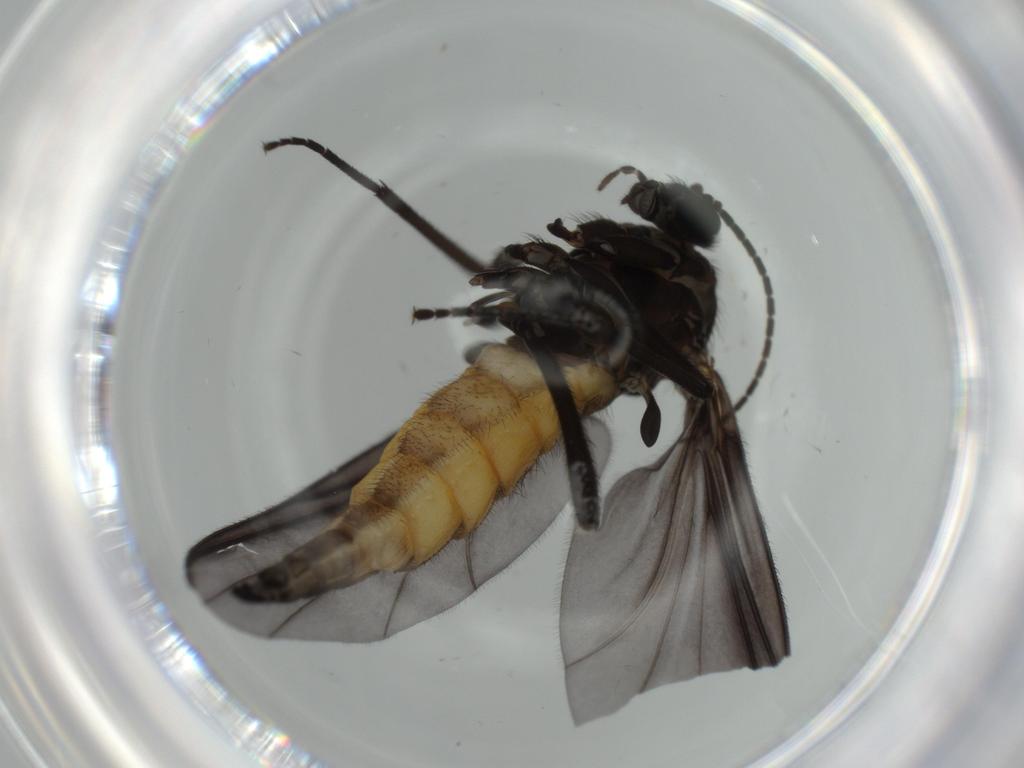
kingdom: Animalia
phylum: Arthropoda
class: Insecta
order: Diptera
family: Sciaridae
